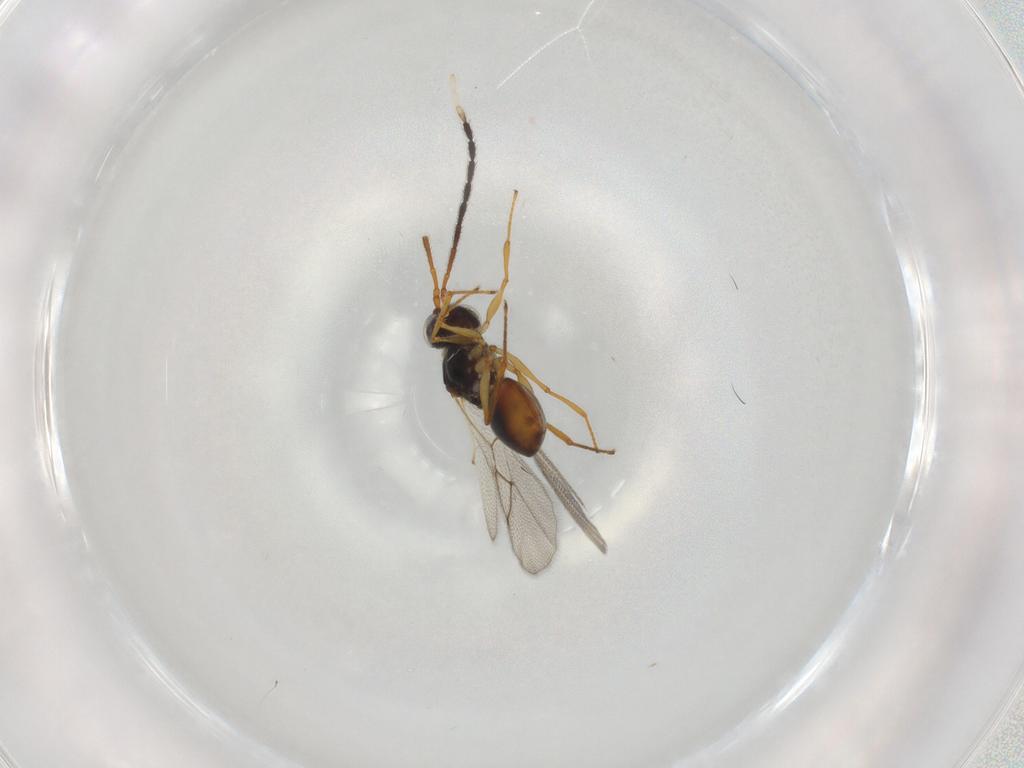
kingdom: Animalia
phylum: Arthropoda
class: Insecta
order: Hymenoptera
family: Figitidae
